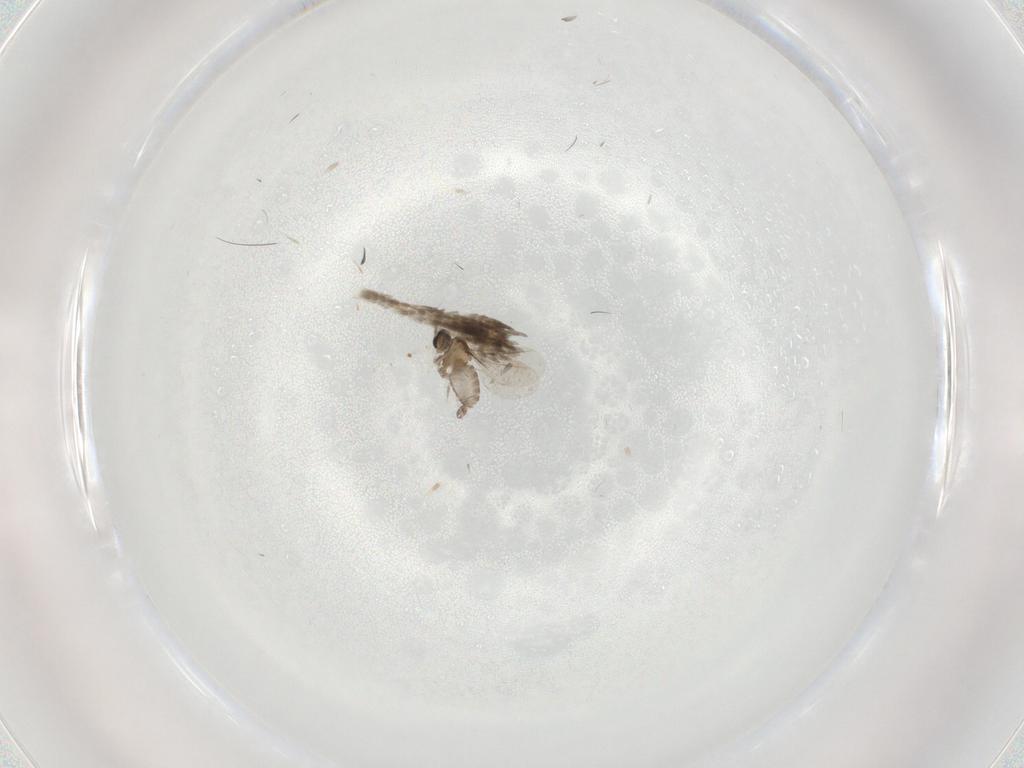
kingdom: Animalia
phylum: Arthropoda
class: Insecta
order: Diptera
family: Cecidomyiidae
